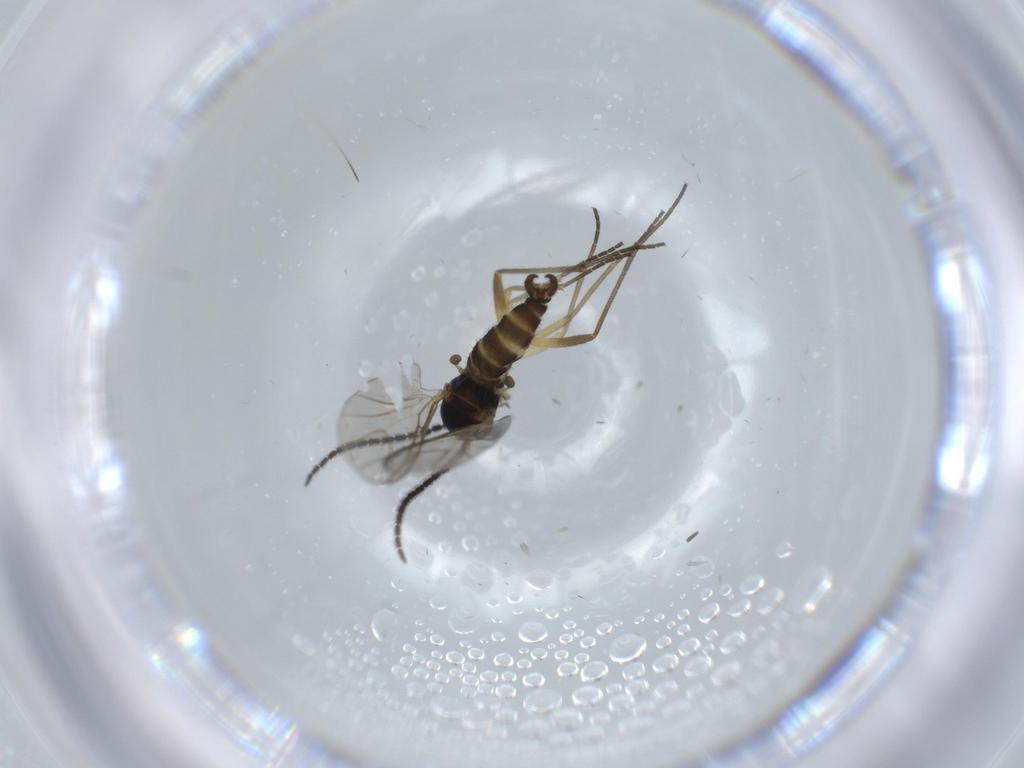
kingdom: Animalia
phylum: Arthropoda
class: Insecta
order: Diptera
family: Sciaridae
